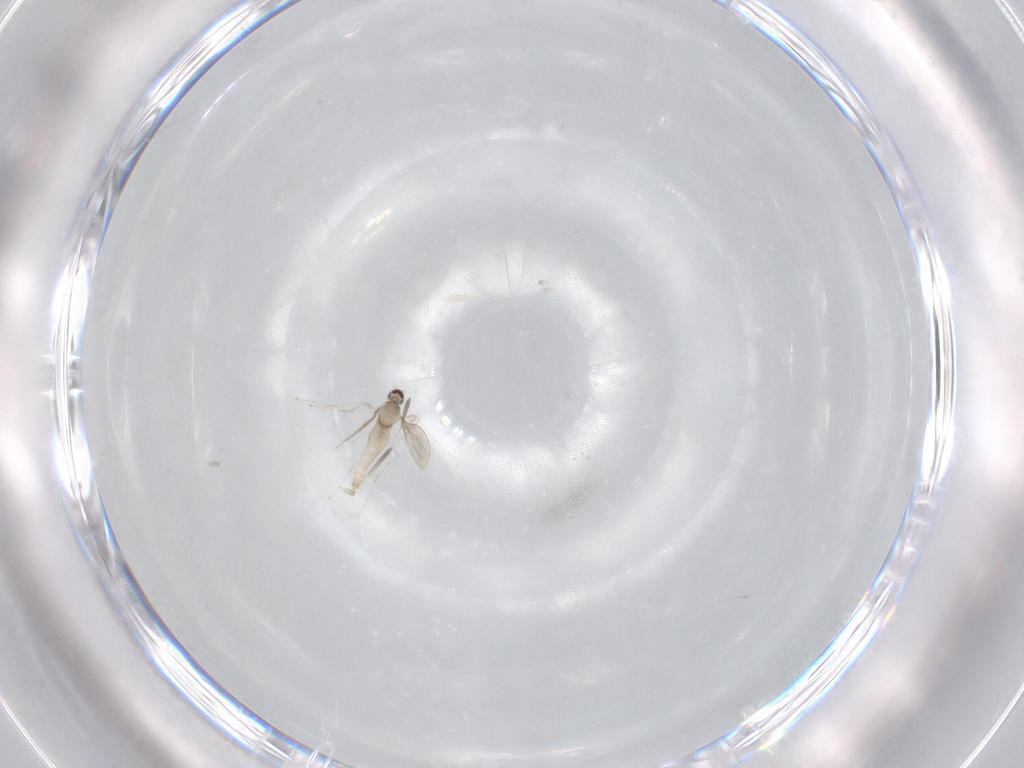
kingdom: Animalia
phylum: Arthropoda
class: Insecta
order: Diptera
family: Cecidomyiidae
